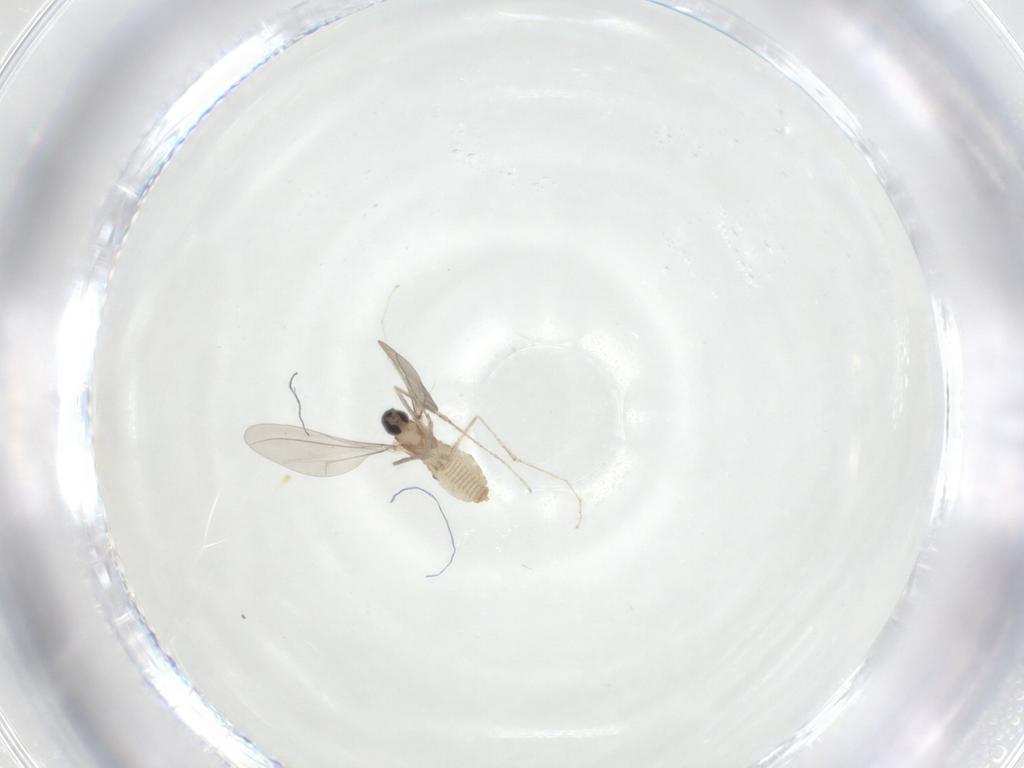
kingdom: Animalia
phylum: Arthropoda
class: Insecta
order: Diptera
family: Cecidomyiidae
